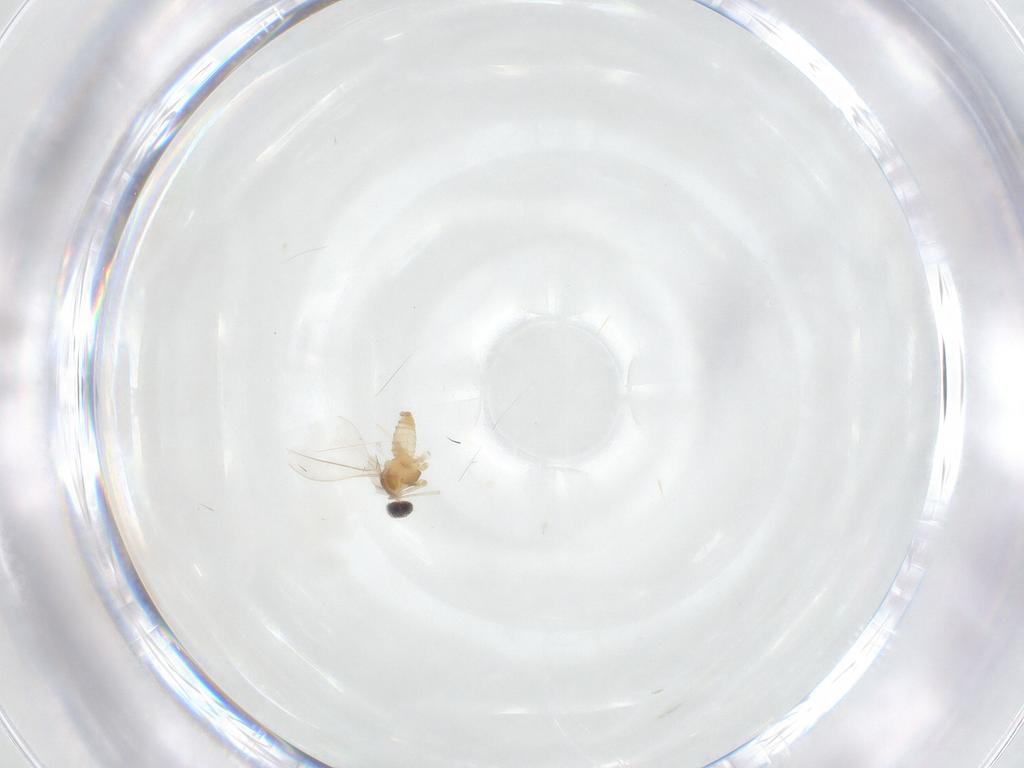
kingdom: Animalia
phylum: Arthropoda
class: Insecta
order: Diptera
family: Cecidomyiidae
